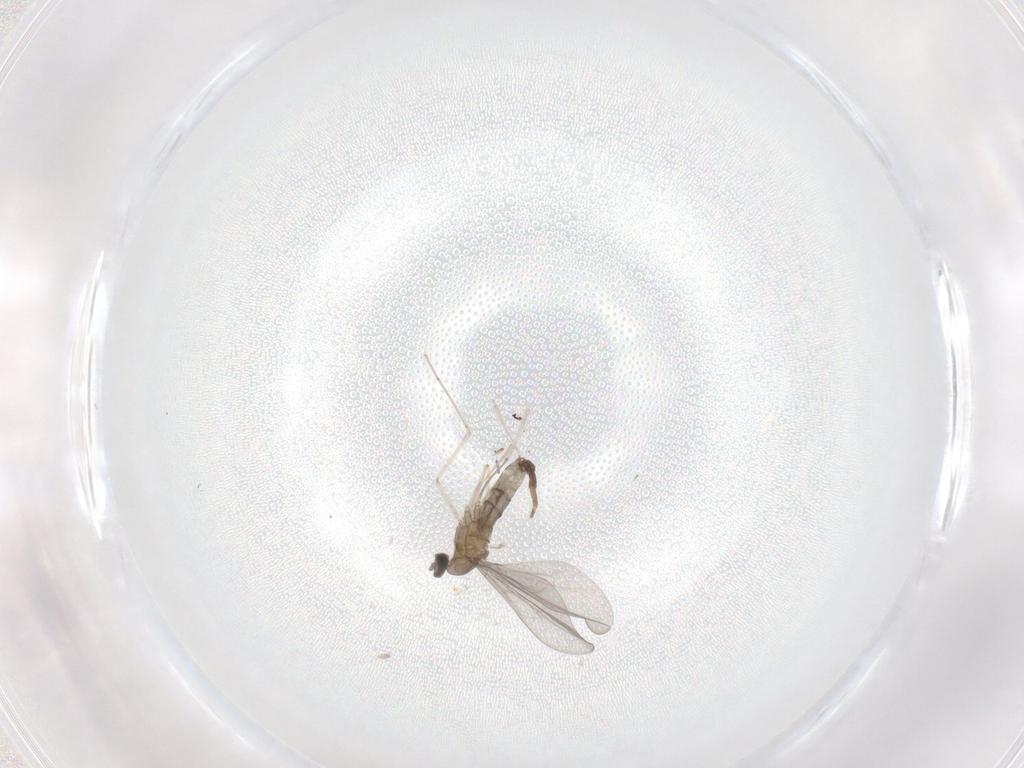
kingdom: Animalia
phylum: Arthropoda
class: Insecta
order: Diptera
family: Cecidomyiidae
